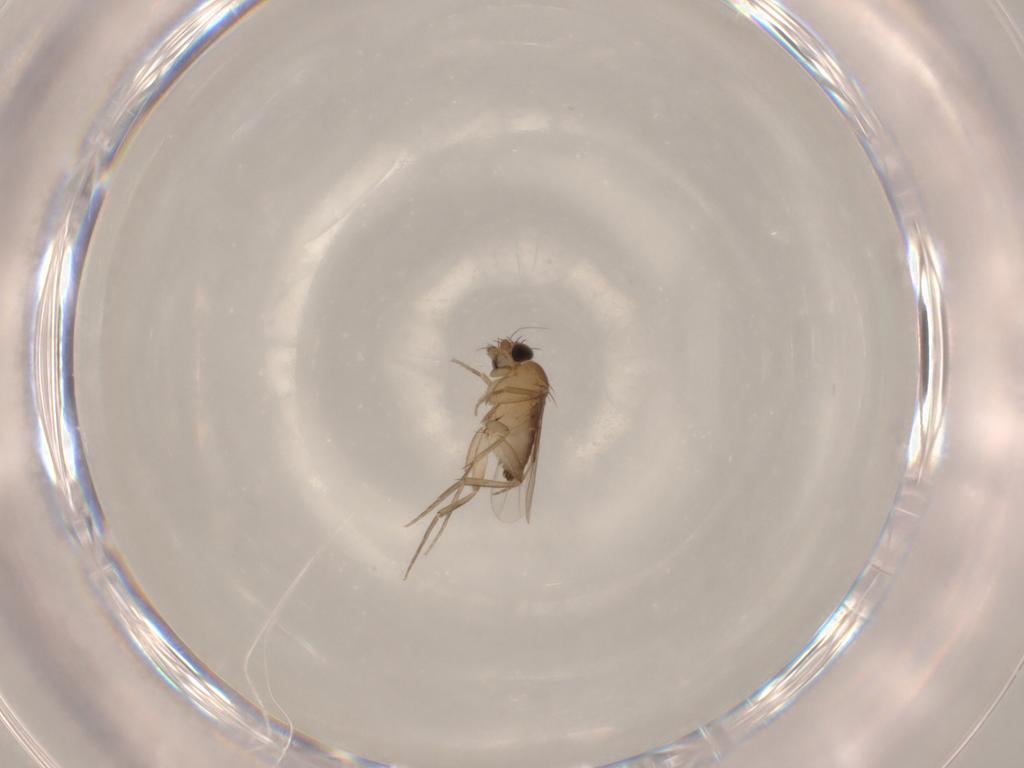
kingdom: Animalia
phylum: Arthropoda
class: Insecta
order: Diptera
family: Phoridae
